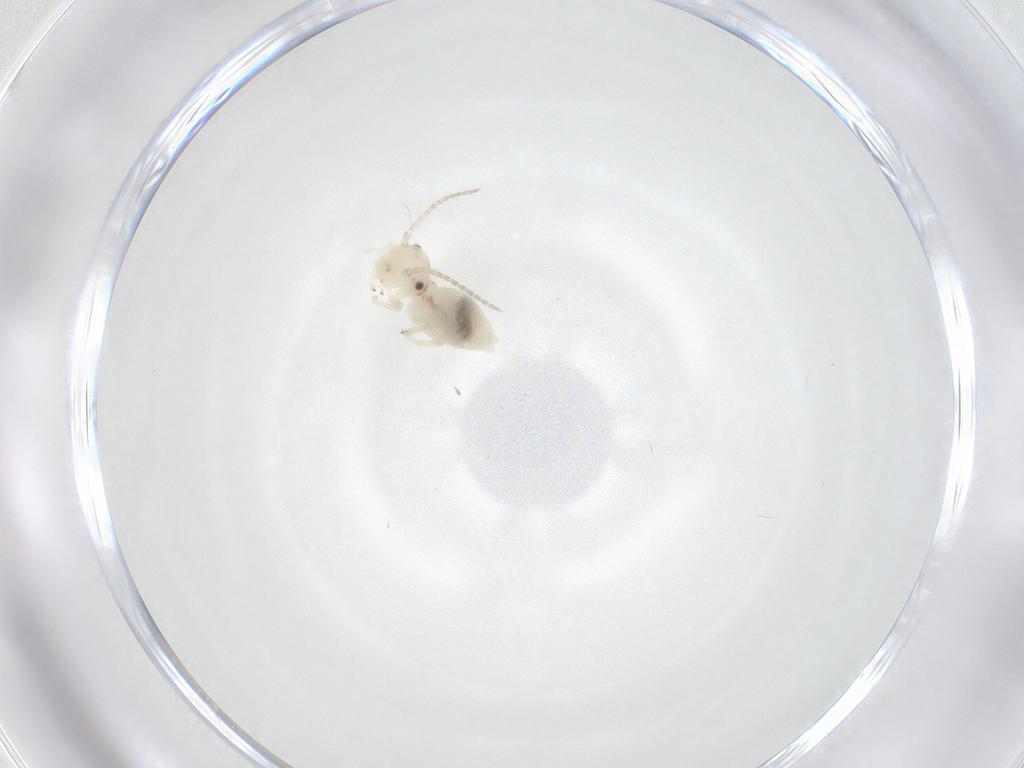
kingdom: Animalia
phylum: Arthropoda
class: Insecta
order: Psocodea
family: Amphipsocidae
